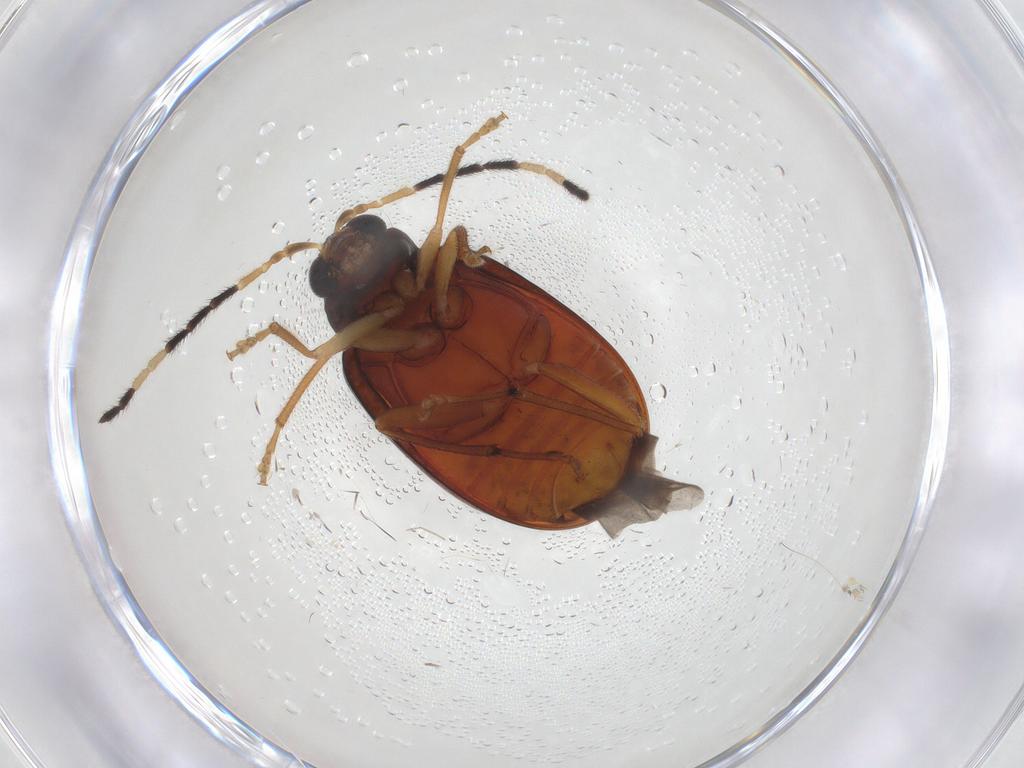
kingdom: Animalia
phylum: Arthropoda
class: Insecta
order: Coleoptera
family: Chrysomelidae
